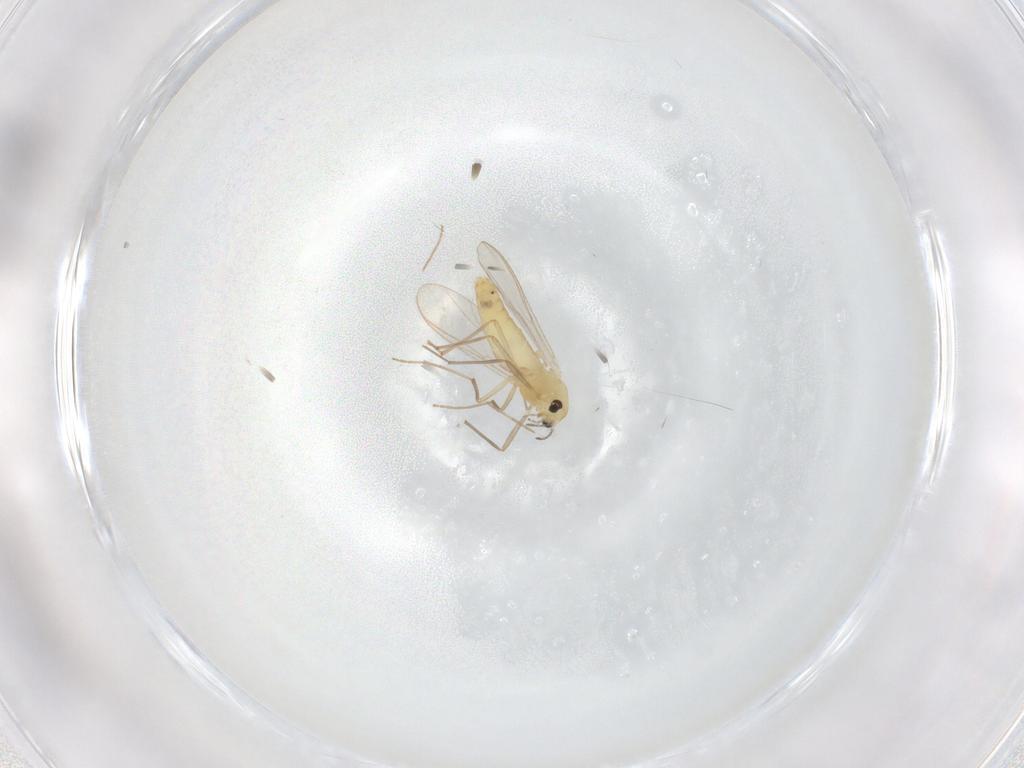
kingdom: Animalia
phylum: Arthropoda
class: Insecta
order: Diptera
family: Chironomidae
